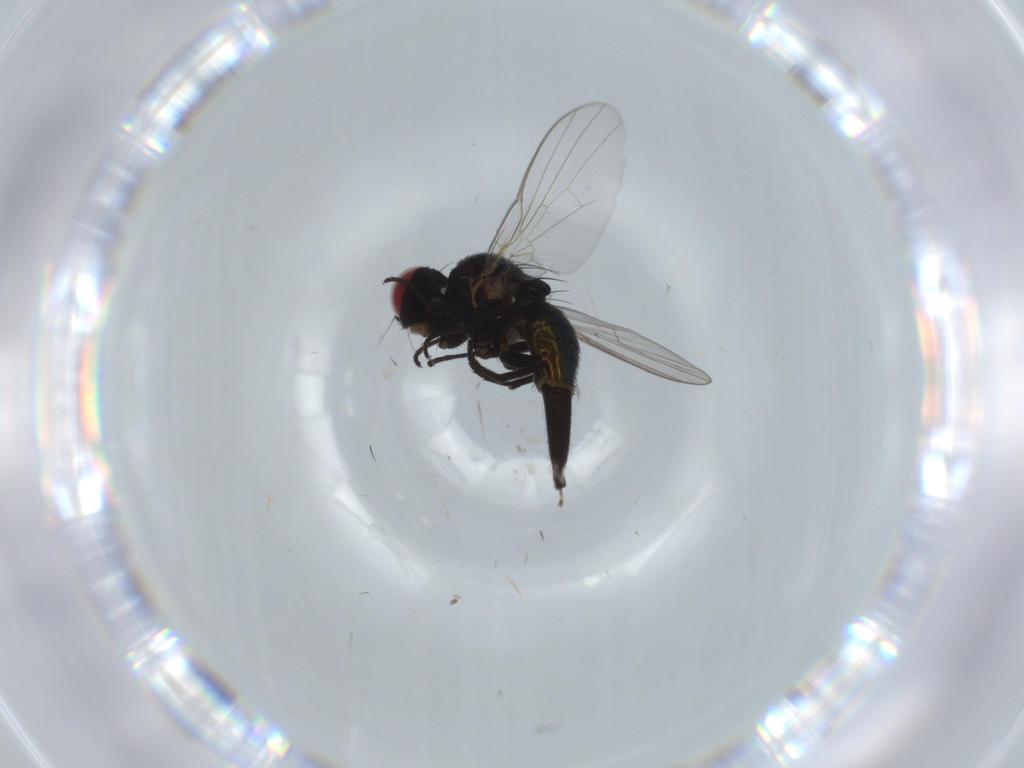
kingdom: Animalia
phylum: Arthropoda
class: Insecta
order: Diptera
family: Agromyzidae
